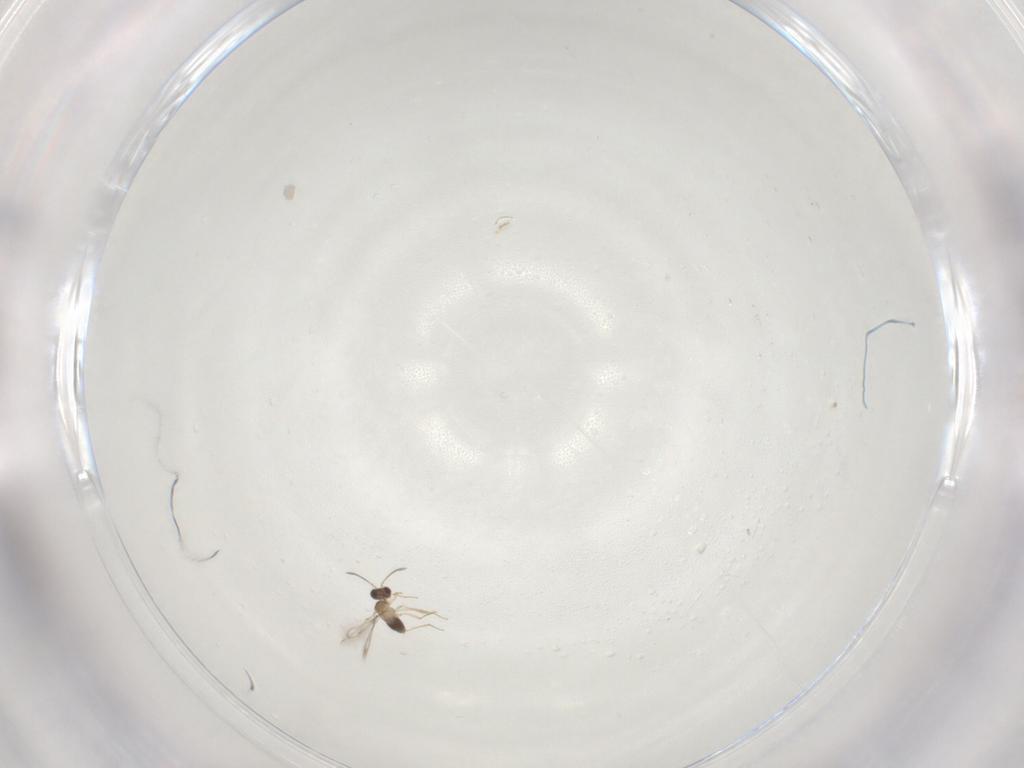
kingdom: Animalia
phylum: Arthropoda
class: Insecta
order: Hymenoptera
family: Mymaridae
